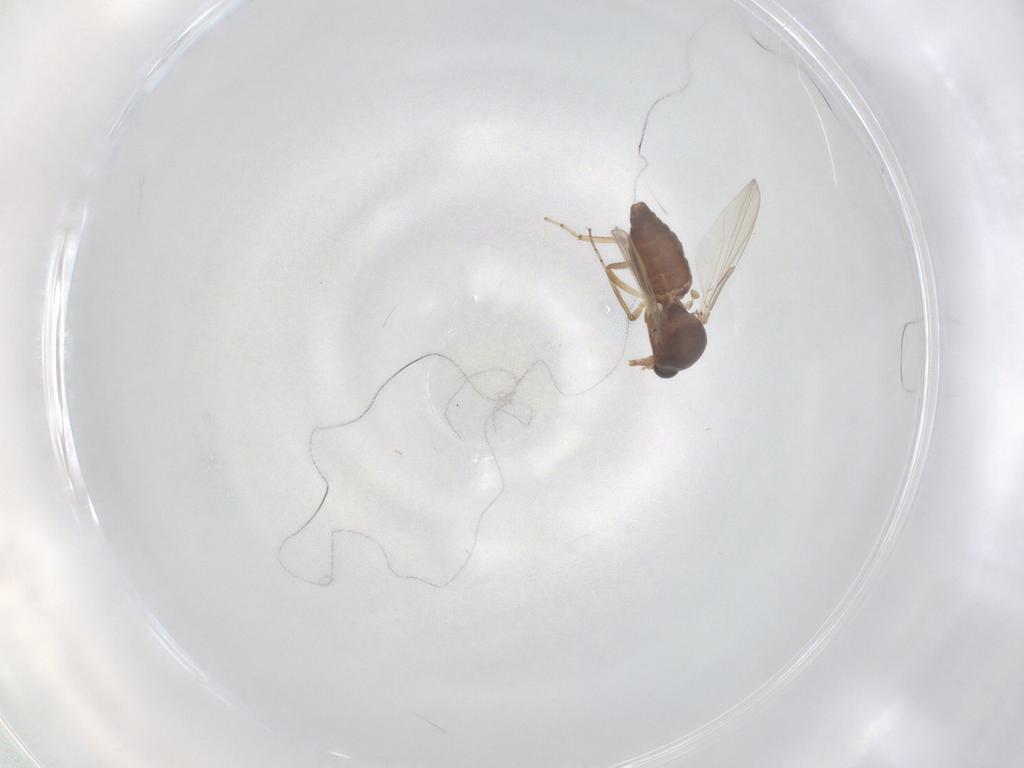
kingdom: Animalia
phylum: Arthropoda
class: Insecta
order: Diptera
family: Ceratopogonidae
